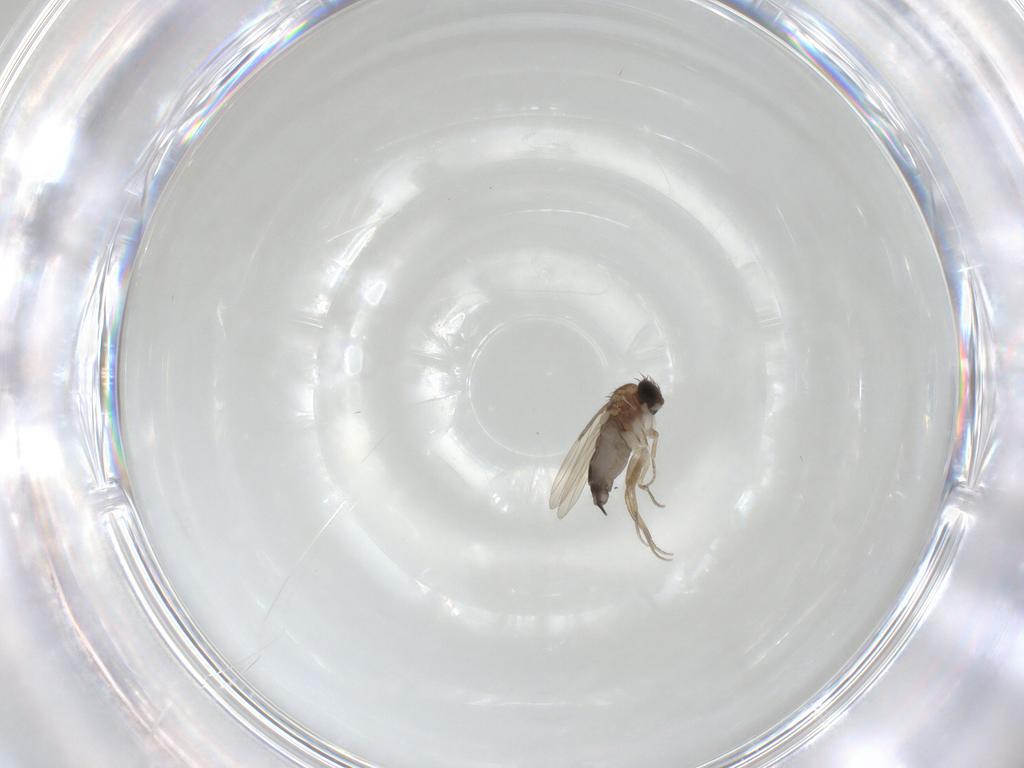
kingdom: Animalia
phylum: Arthropoda
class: Insecta
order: Diptera
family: Phoridae
